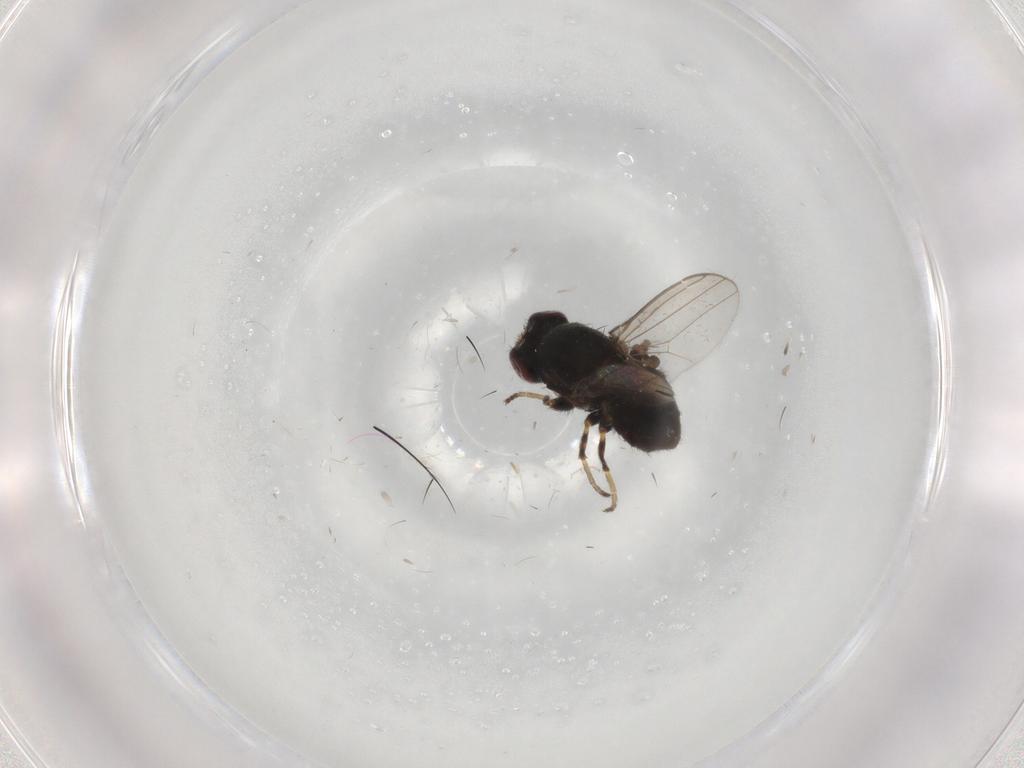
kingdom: Animalia
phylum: Arthropoda
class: Insecta
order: Diptera
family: Chloropidae
